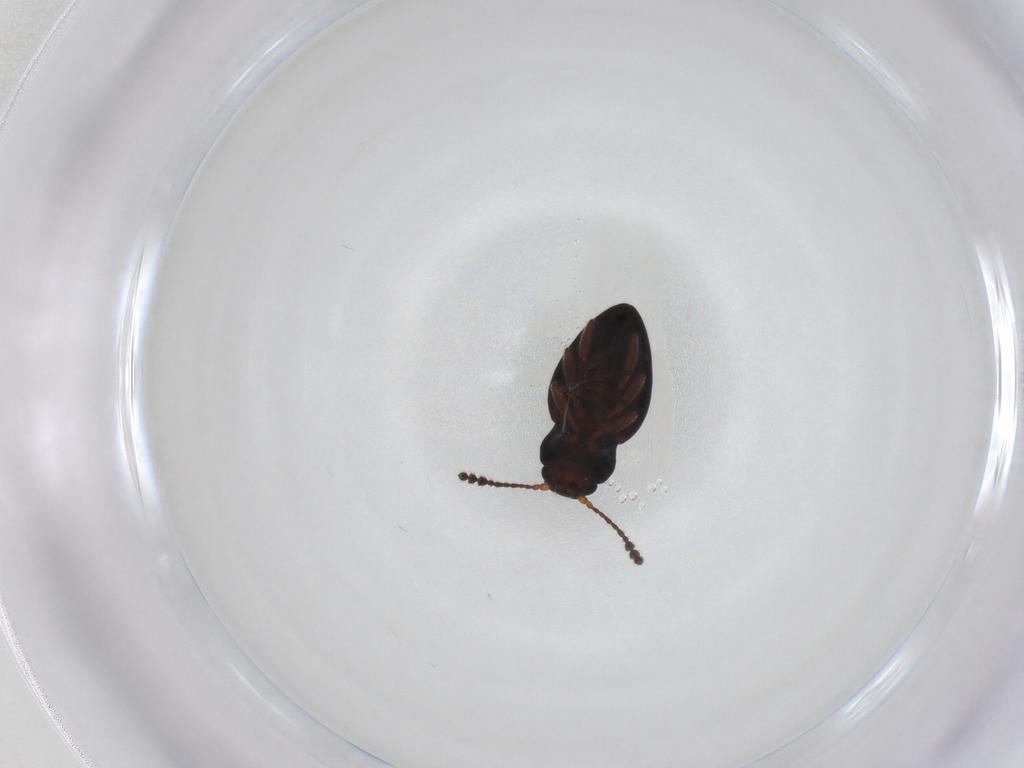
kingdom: Animalia
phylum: Arthropoda
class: Insecta
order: Coleoptera
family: Erotylidae
